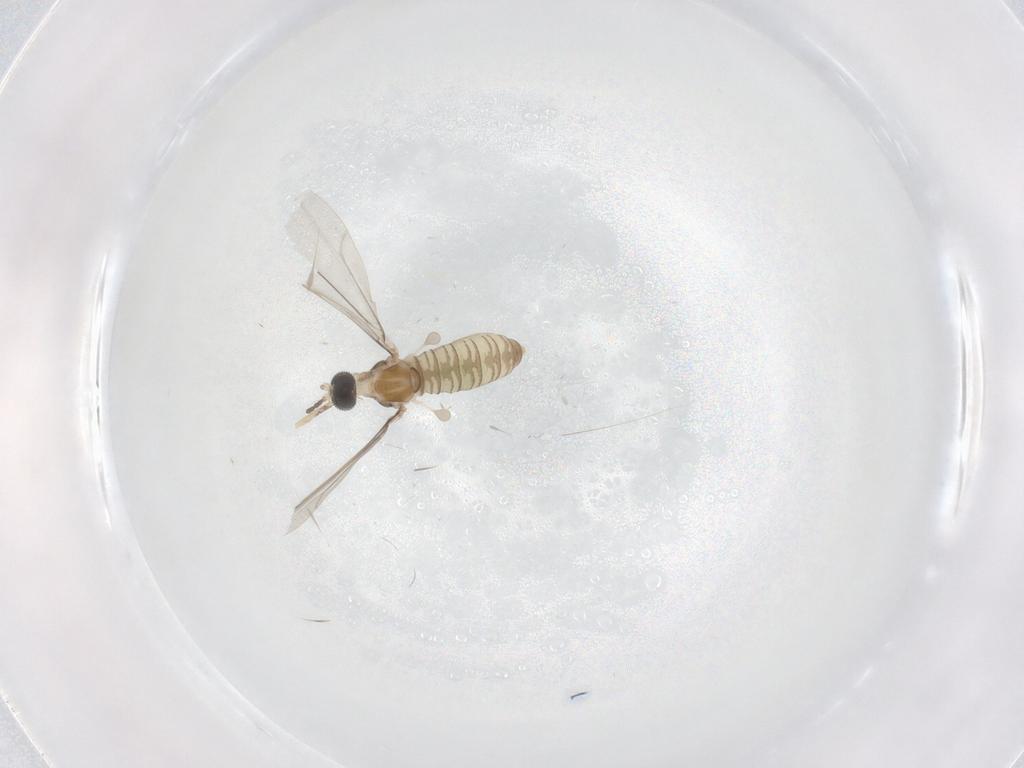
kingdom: Animalia
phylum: Arthropoda
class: Insecta
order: Diptera
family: Cecidomyiidae
